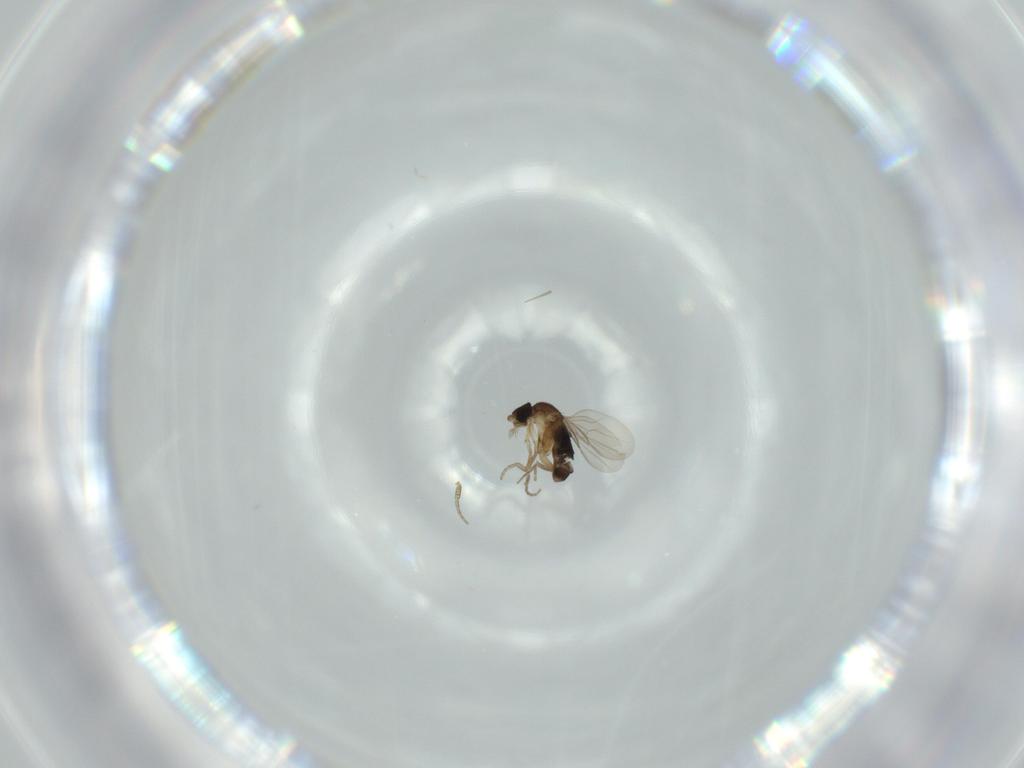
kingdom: Animalia
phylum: Arthropoda
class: Insecta
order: Diptera
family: Phoridae
